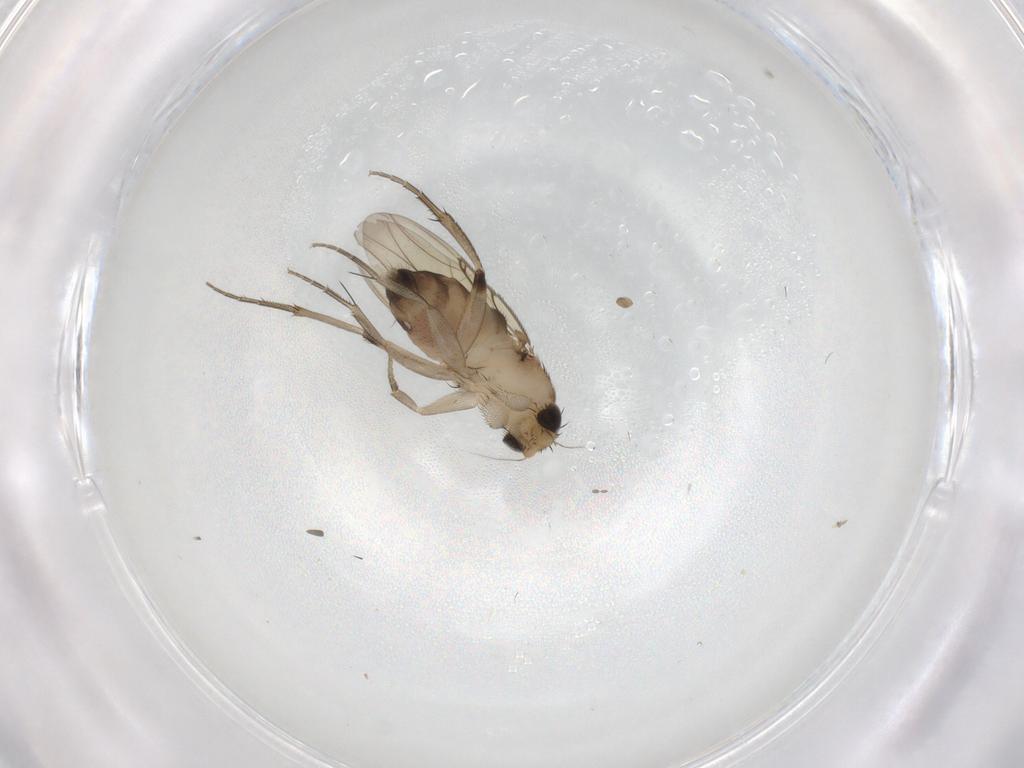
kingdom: Animalia
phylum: Arthropoda
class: Insecta
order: Diptera
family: Phoridae
